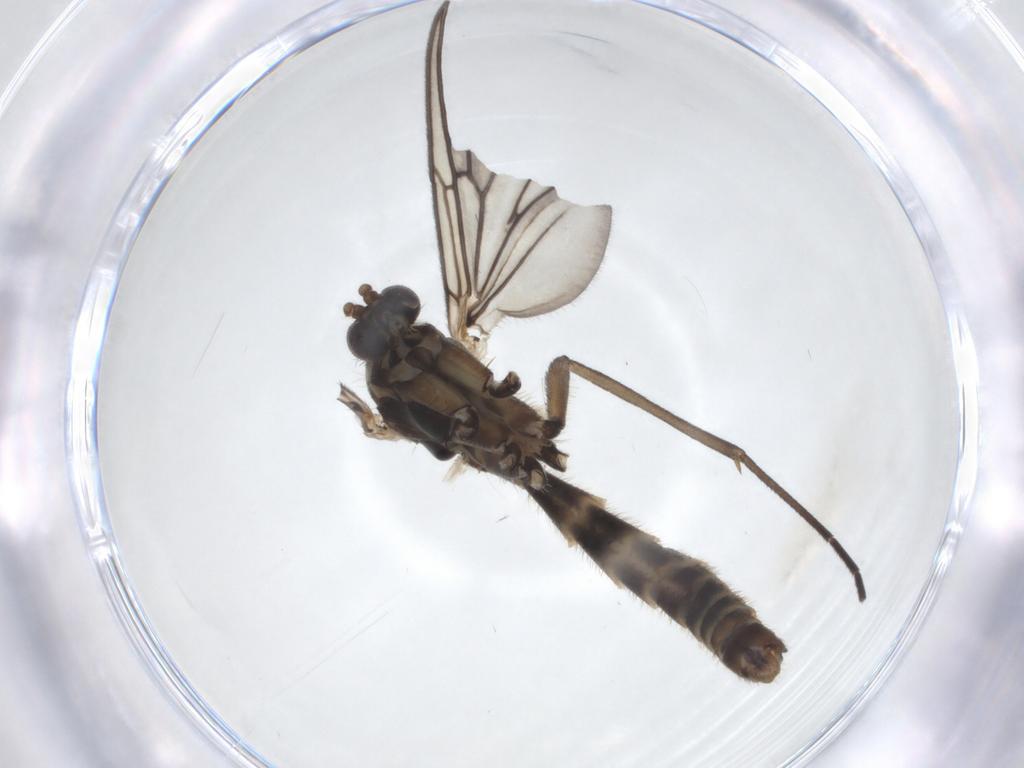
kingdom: Animalia
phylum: Arthropoda
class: Insecta
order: Diptera
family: Mycetophilidae
